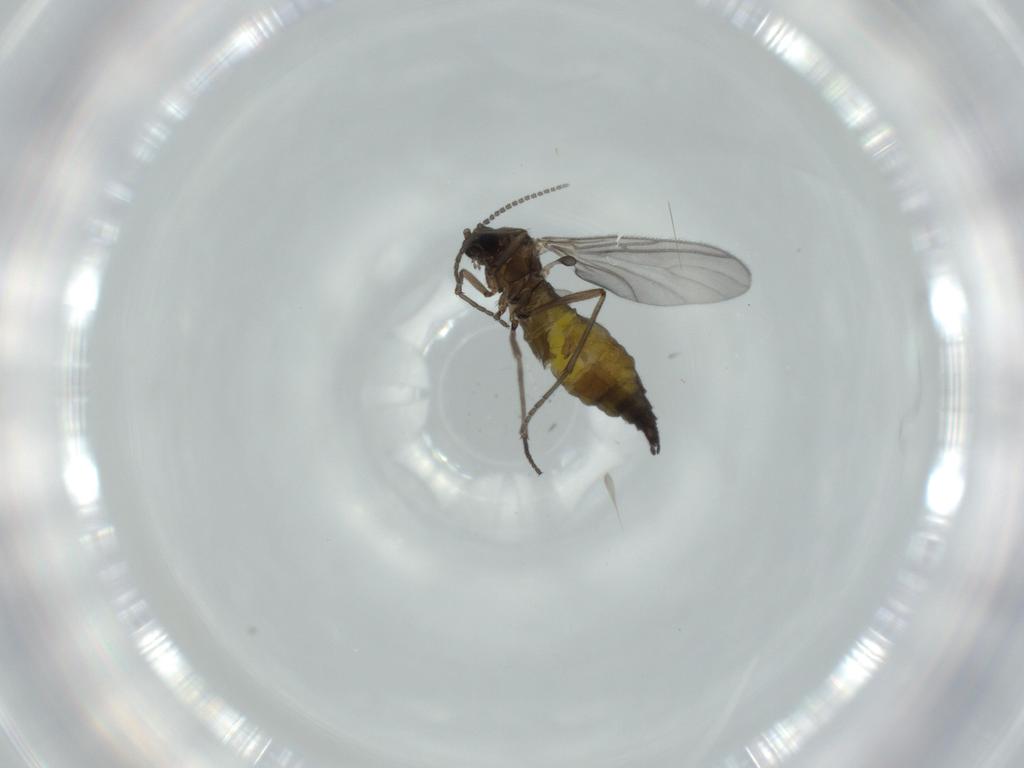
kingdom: Animalia
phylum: Arthropoda
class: Insecta
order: Diptera
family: Sciaridae
